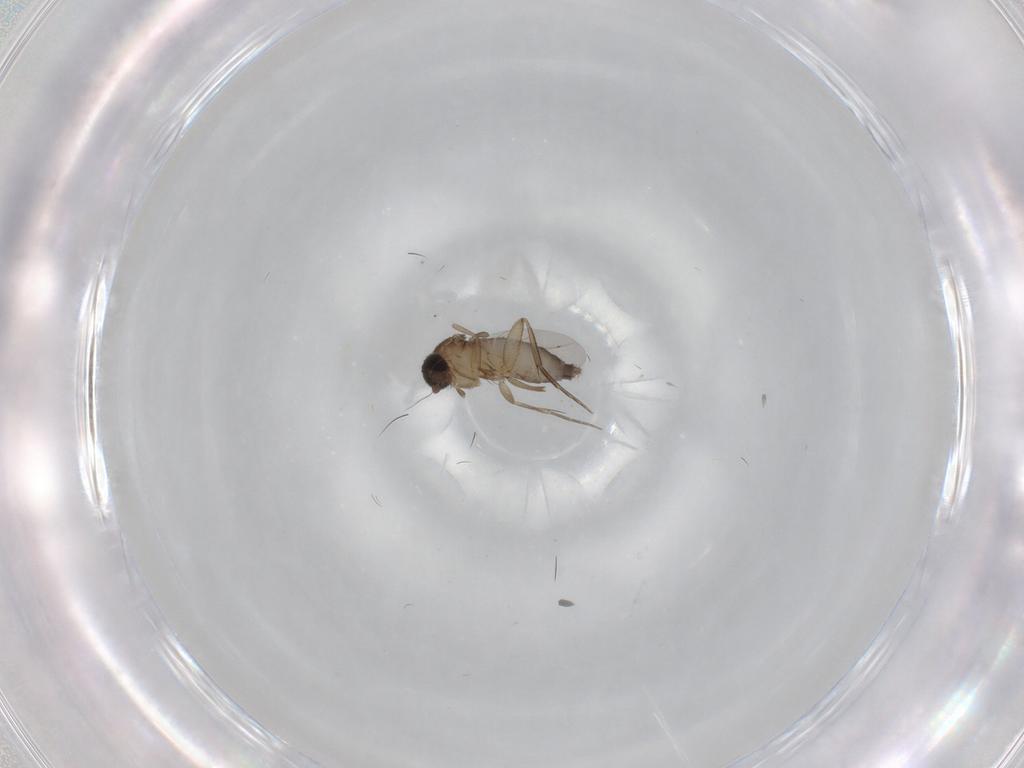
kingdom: Animalia
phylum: Arthropoda
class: Insecta
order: Diptera
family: Phoridae
